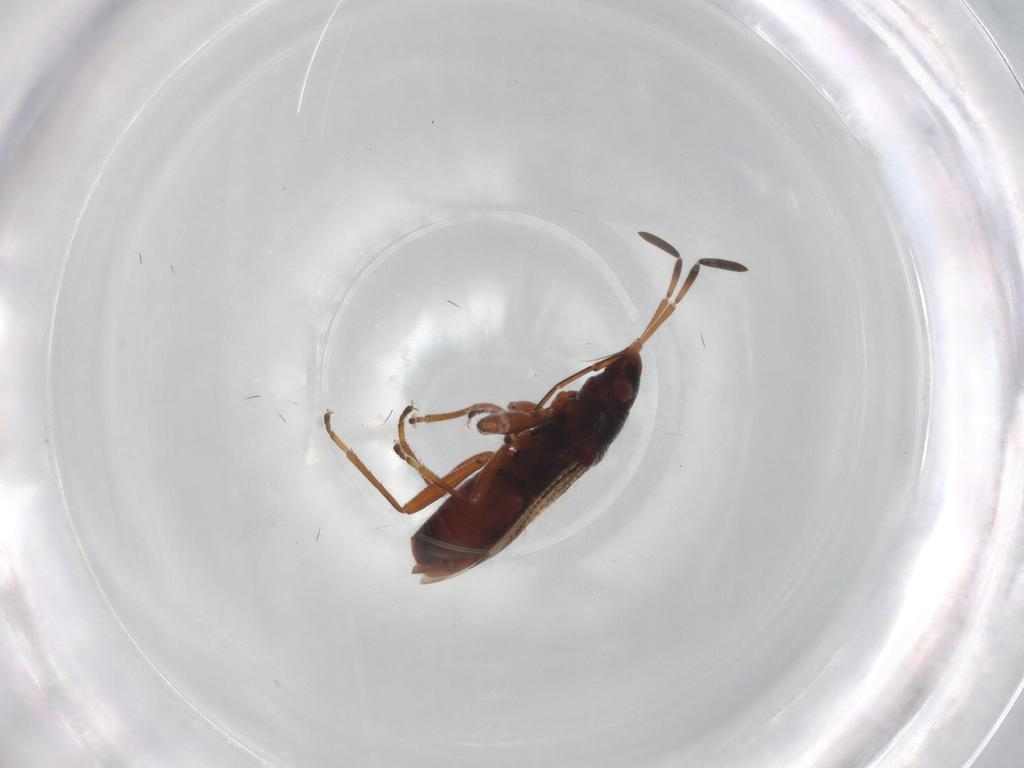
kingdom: Animalia
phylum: Arthropoda
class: Insecta
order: Hemiptera
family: Rhyparochromidae
